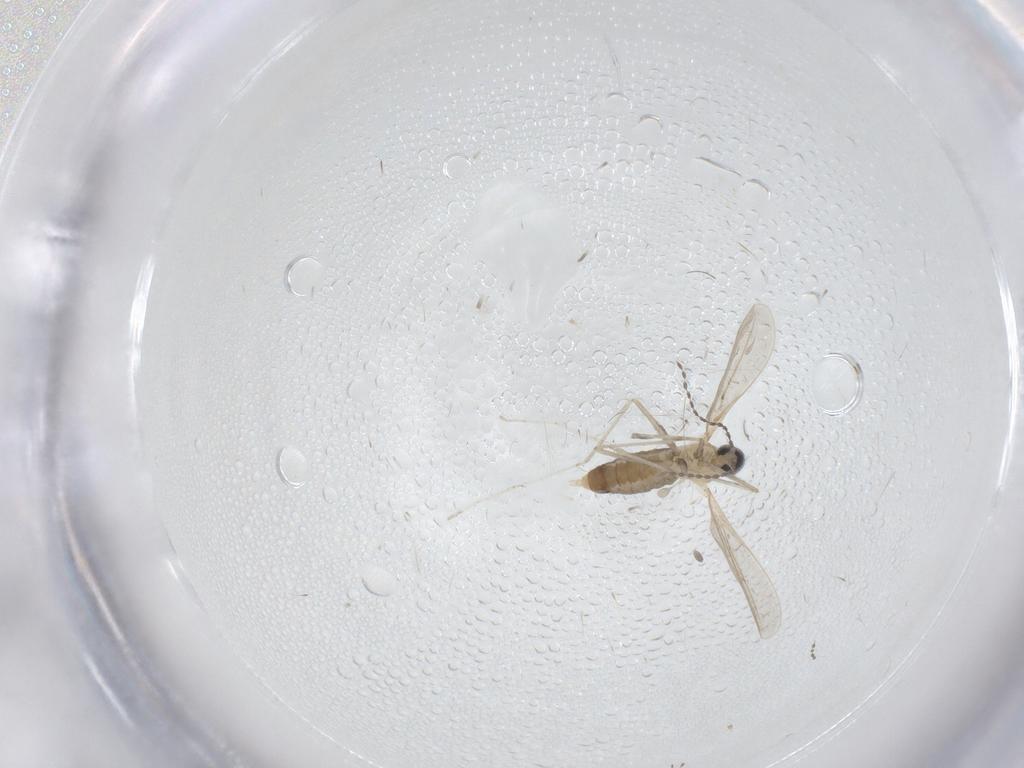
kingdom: Animalia
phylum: Arthropoda
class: Insecta
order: Diptera
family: Cecidomyiidae
